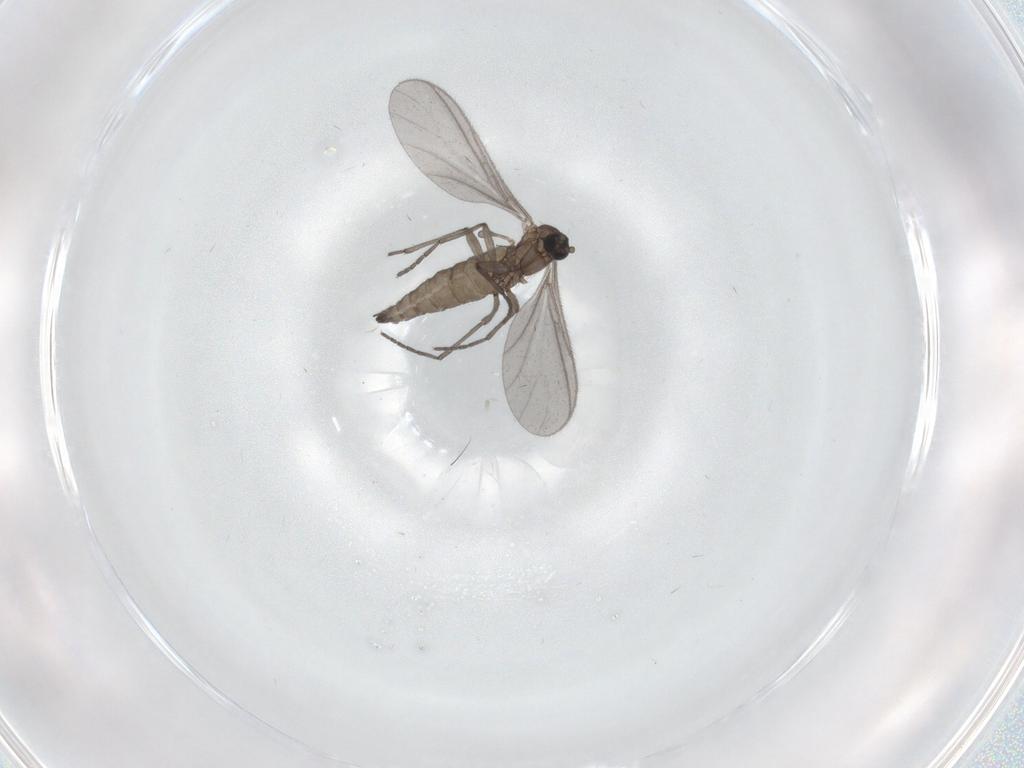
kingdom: Animalia
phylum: Arthropoda
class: Insecta
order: Diptera
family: Sciaridae
